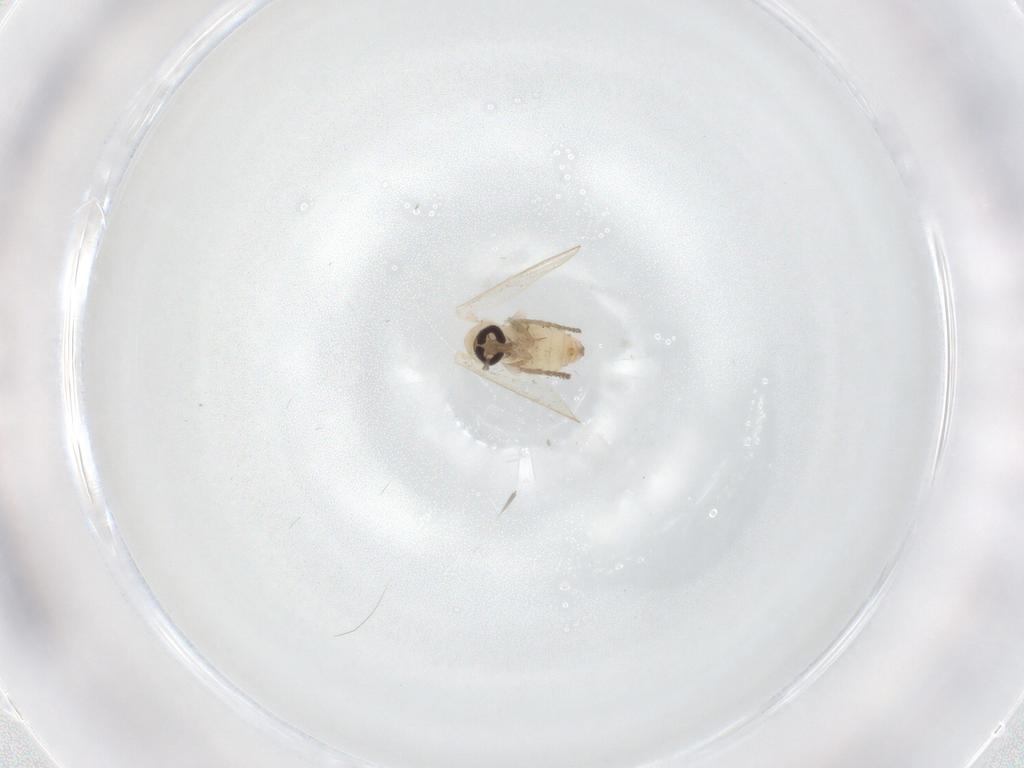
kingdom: Animalia
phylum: Arthropoda
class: Insecta
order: Diptera
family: Psychodidae
